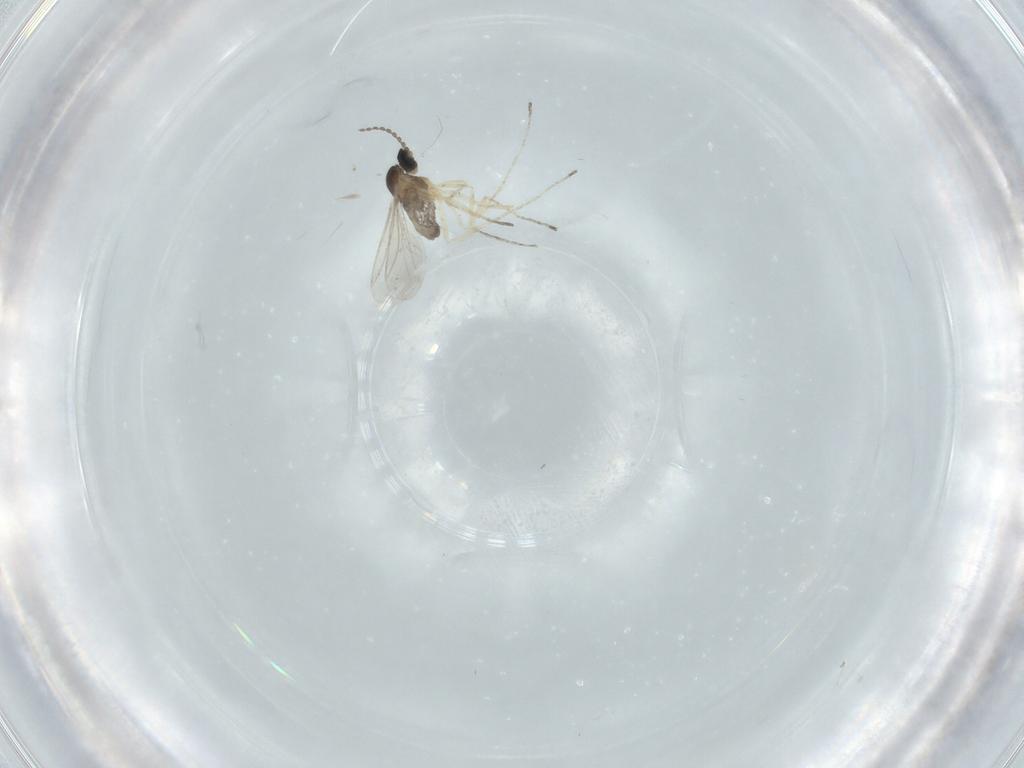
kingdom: Animalia
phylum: Arthropoda
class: Insecta
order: Diptera
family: Cecidomyiidae
